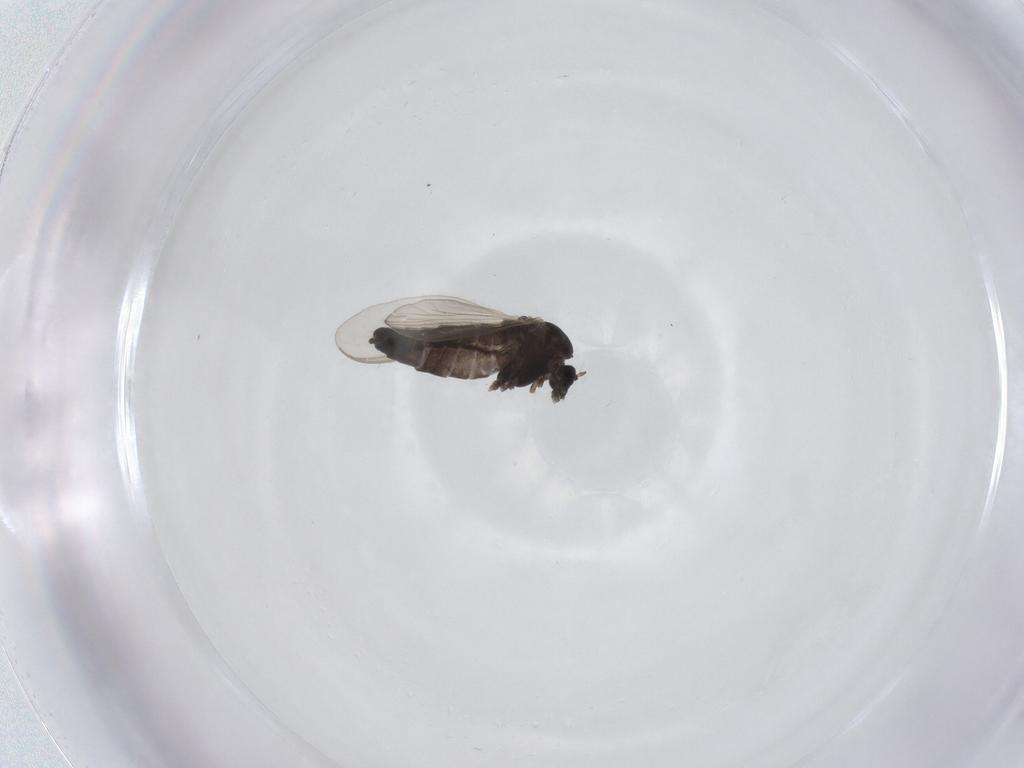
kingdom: Animalia
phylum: Arthropoda
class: Insecta
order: Diptera
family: Chironomidae
